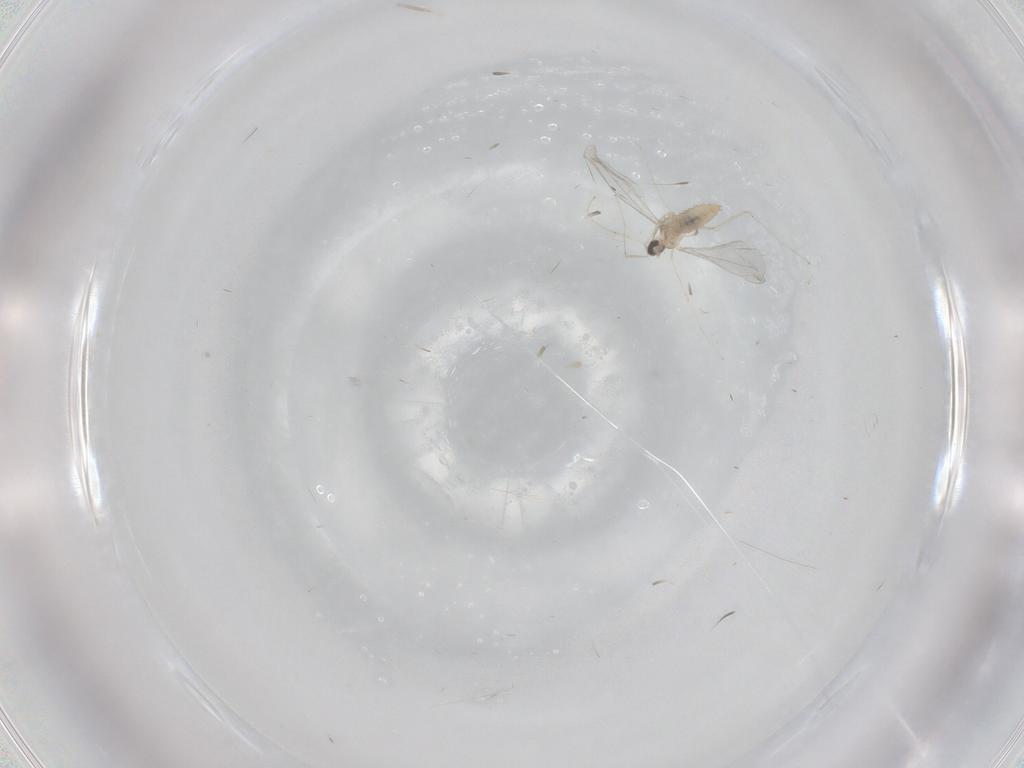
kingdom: Animalia
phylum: Arthropoda
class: Insecta
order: Diptera
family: Cecidomyiidae
